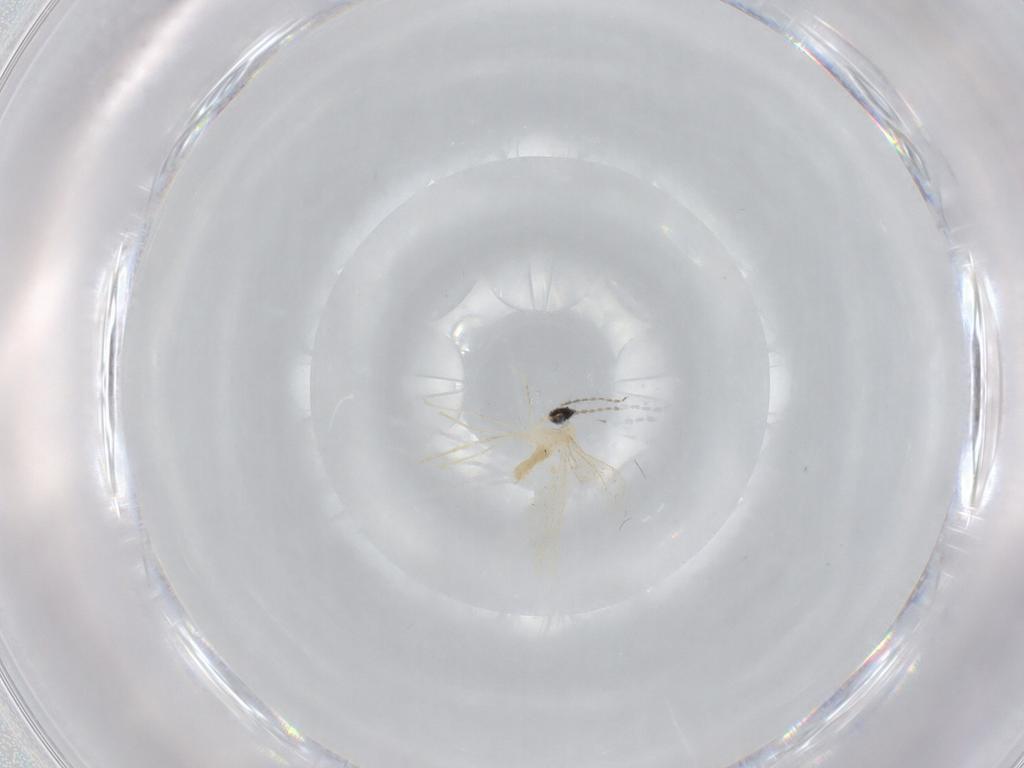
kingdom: Animalia
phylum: Arthropoda
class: Insecta
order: Diptera
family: Cecidomyiidae
